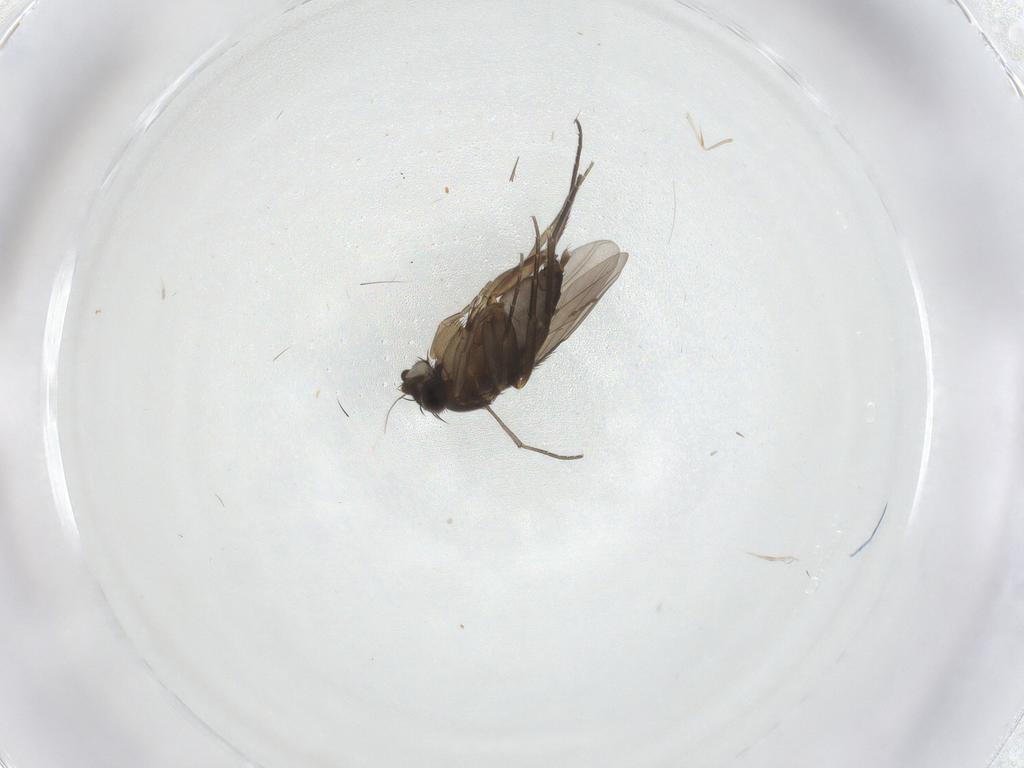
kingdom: Animalia
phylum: Arthropoda
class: Insecta
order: Diptera
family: Sciaridae
